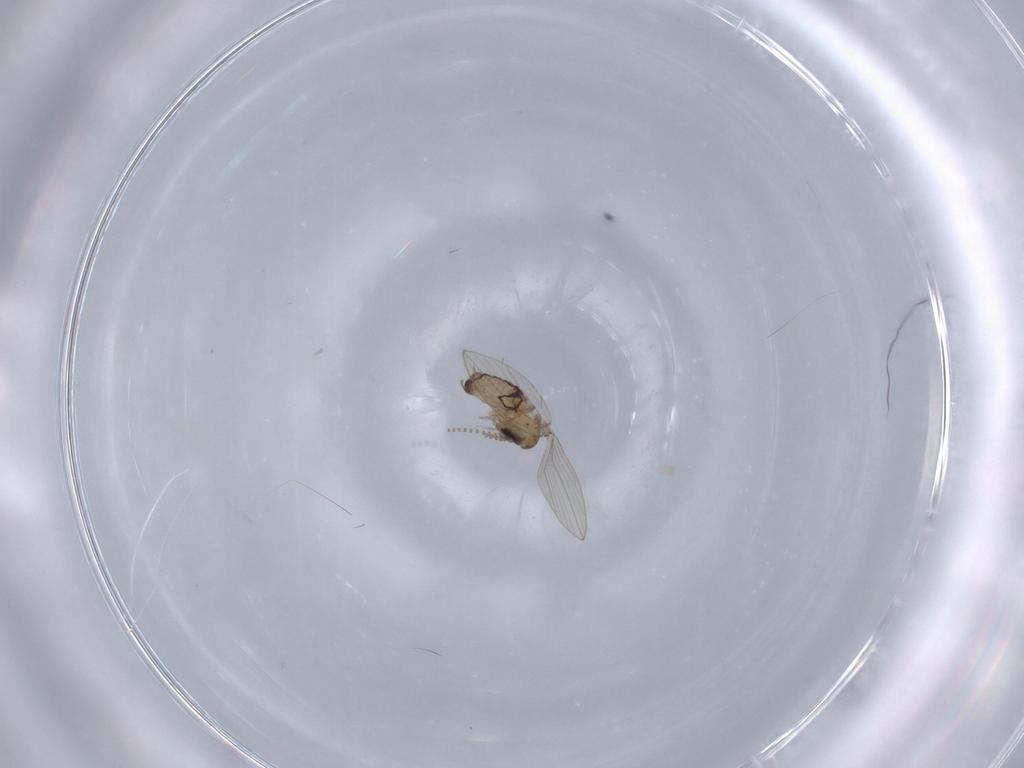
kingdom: Animalia
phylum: Arthropoda
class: Insecta
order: Diptera
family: Psychodidae
